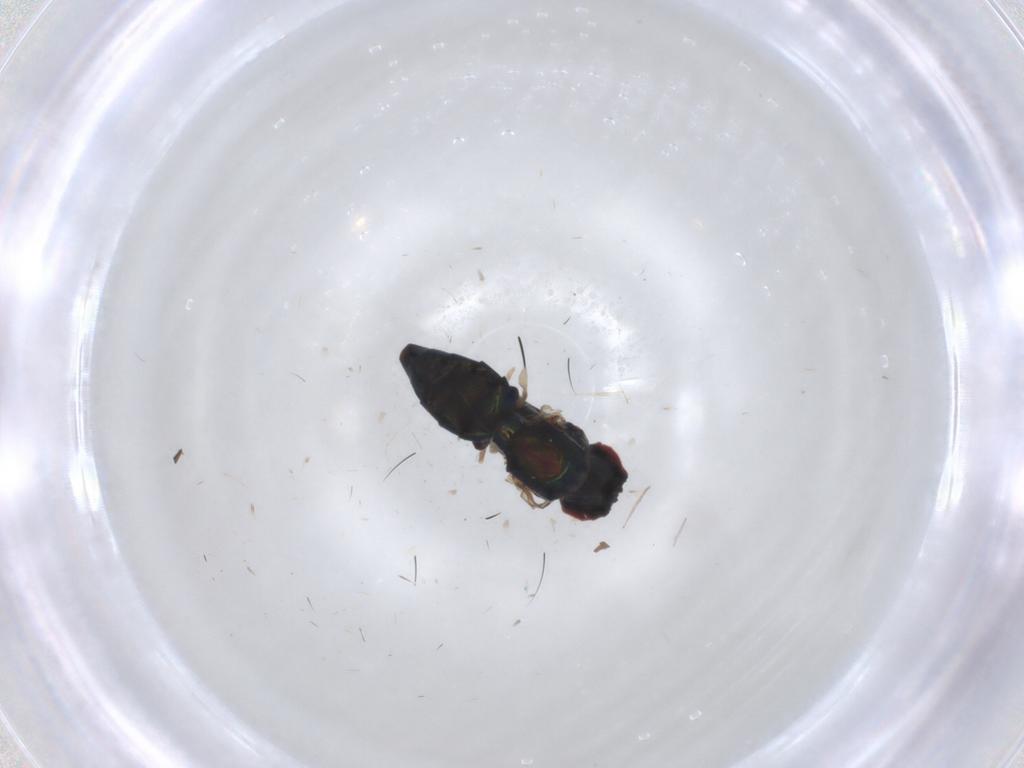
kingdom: Animalia
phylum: Arthropoda
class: Insecta
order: Diptera
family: Dolichopodidae
